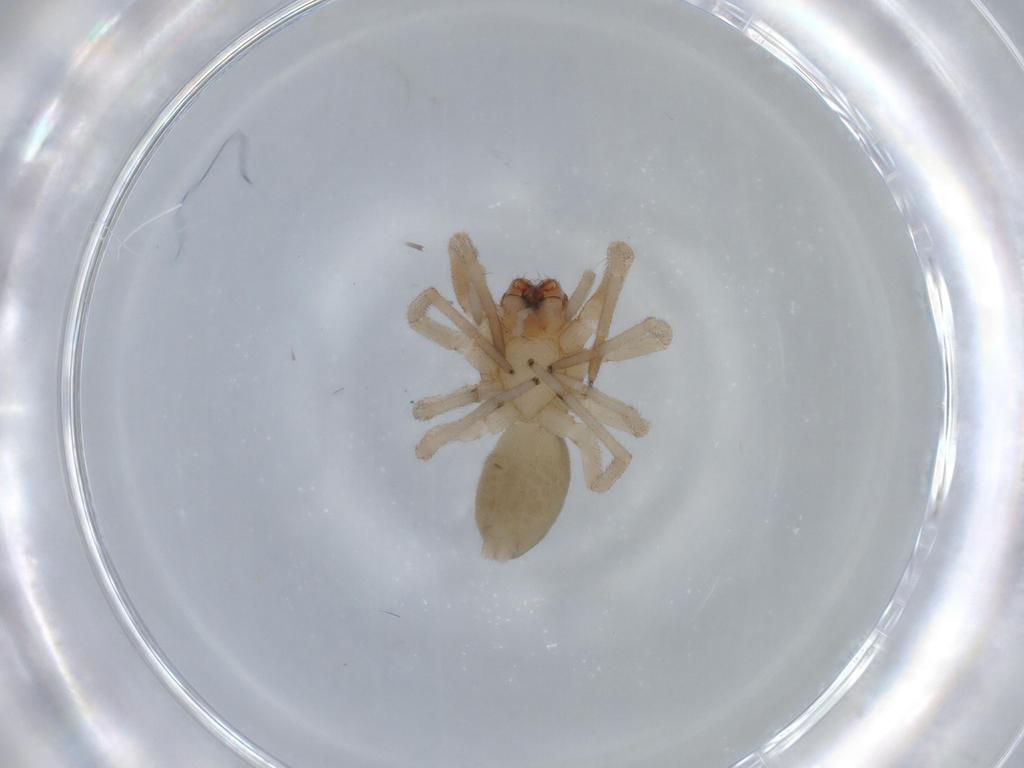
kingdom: Animalia
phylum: Arthropoda
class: Arachnida
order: Araneae
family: Trachelidae
